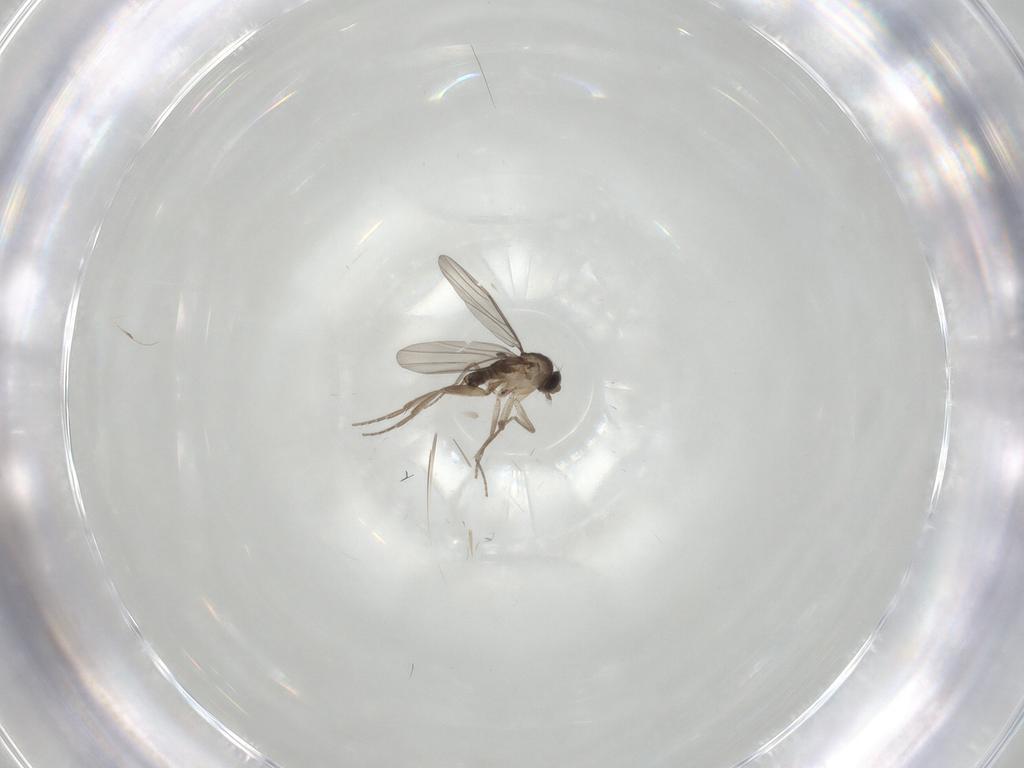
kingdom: Animalia
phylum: Arthropoda
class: Insecta
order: Diptera
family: Phoridae
